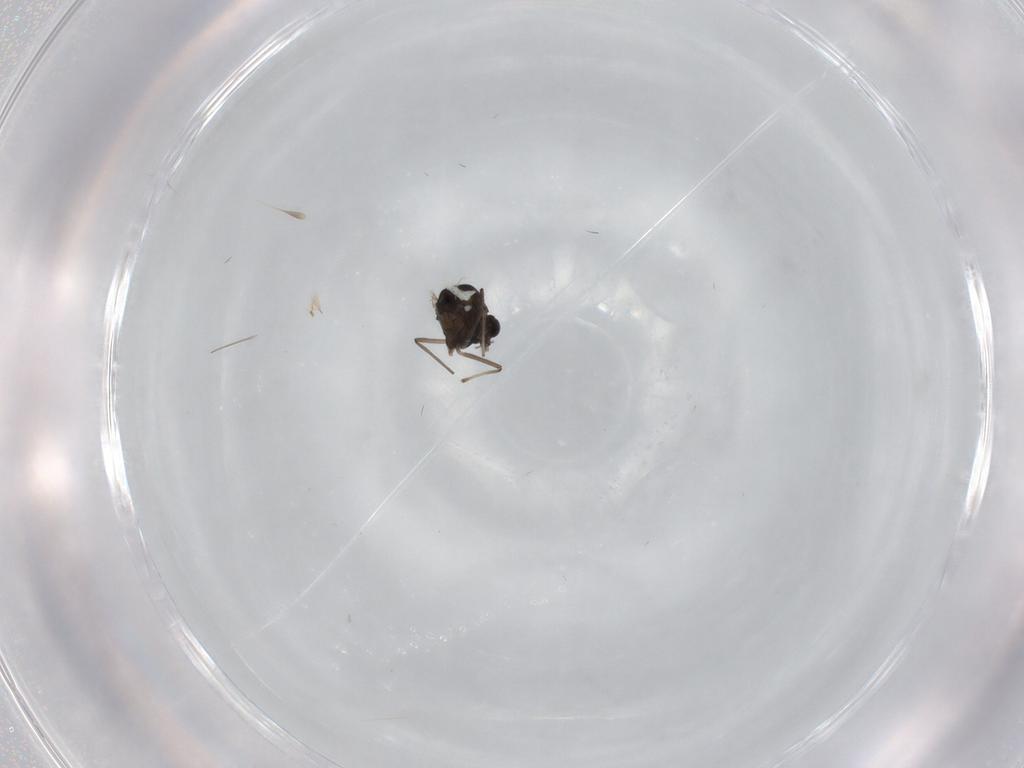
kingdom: Animalia
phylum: Arthropoda
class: Insecta
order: Diptera
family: Chironomidae
